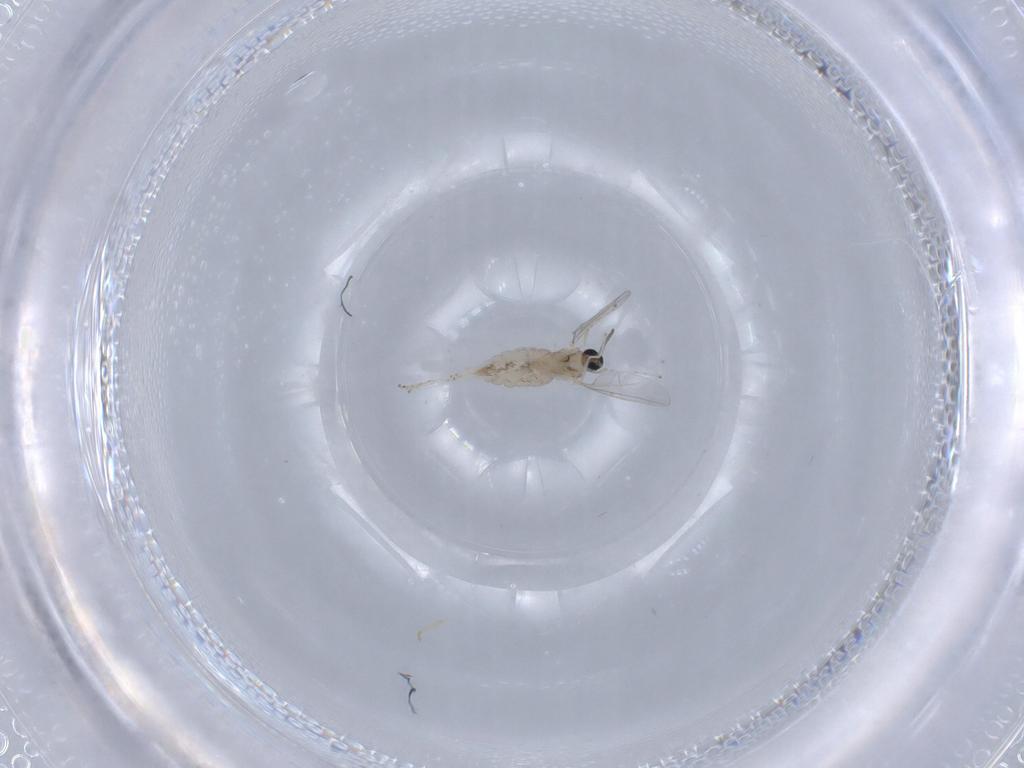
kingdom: Animalia
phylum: Arthropoda
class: Insecta
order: Diptera
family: Cecidomyiidae
